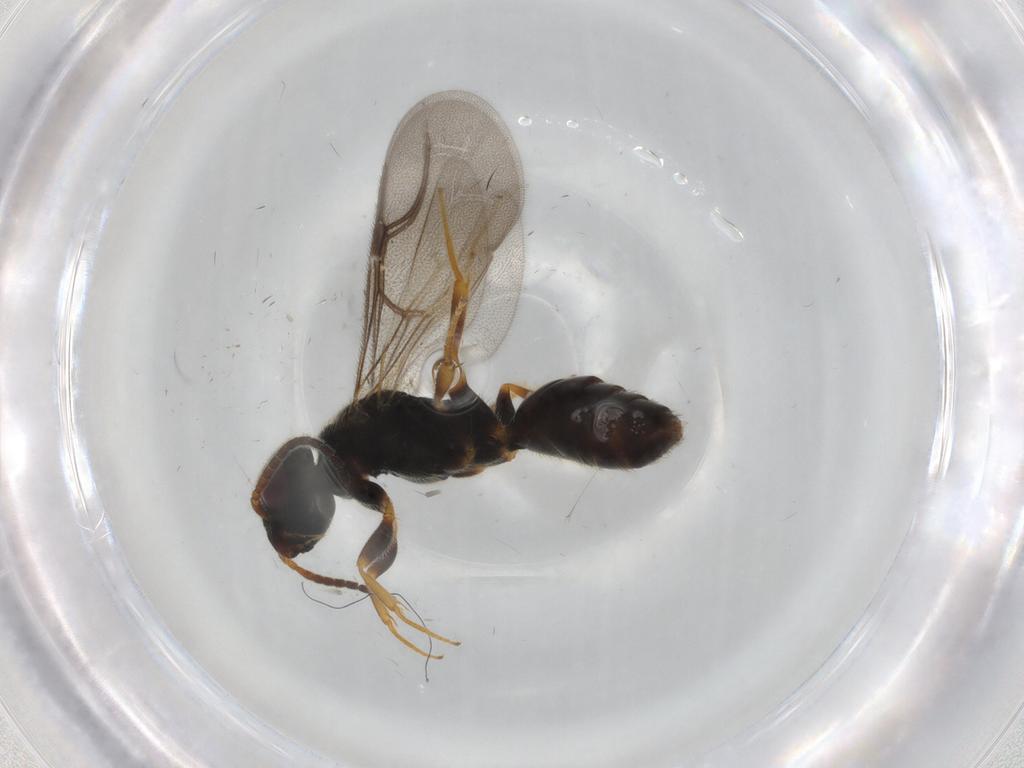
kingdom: Animalia
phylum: Arthropoda
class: Insecta
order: Hymenoptera
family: Bethylidae
